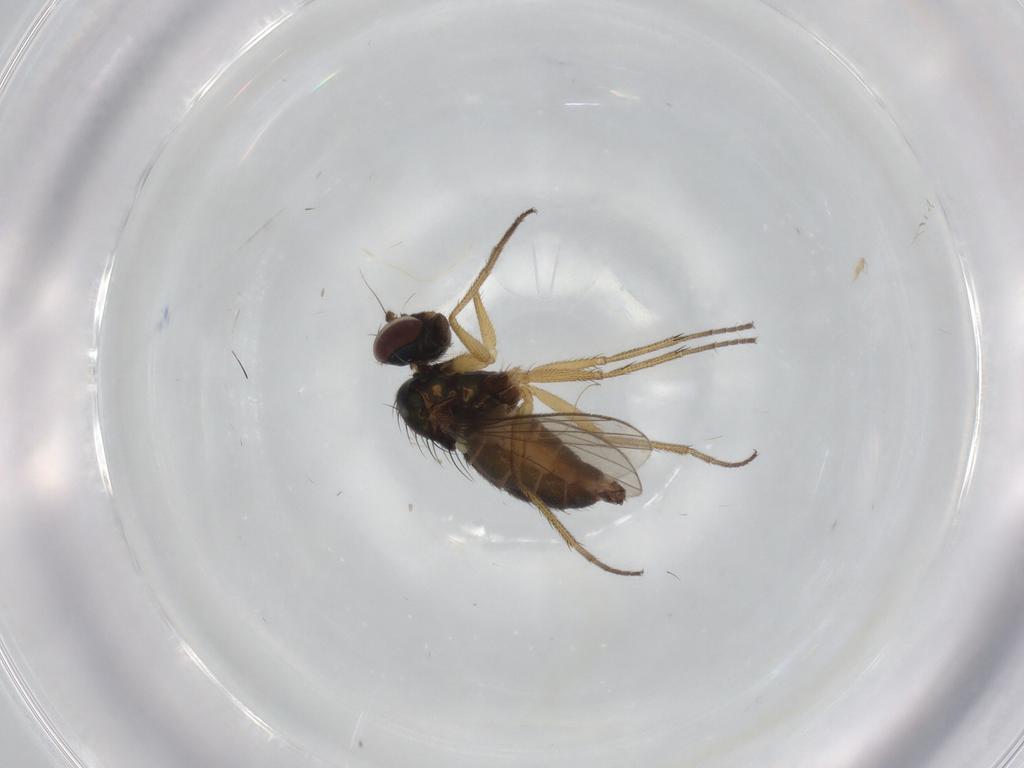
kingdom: Animalia
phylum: Arthropoda
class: Insecta
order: Diptera
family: Dolichopodidae
